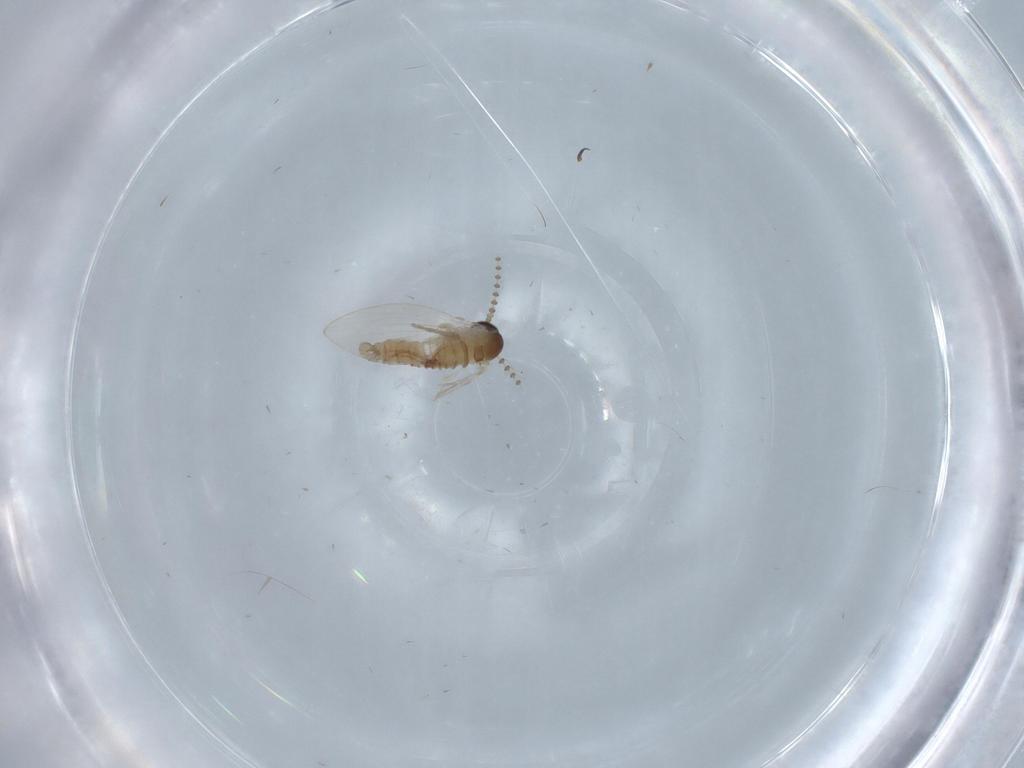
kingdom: Animalia
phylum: Arthropoda
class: Insecta
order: Diptera
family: Psychodidae
